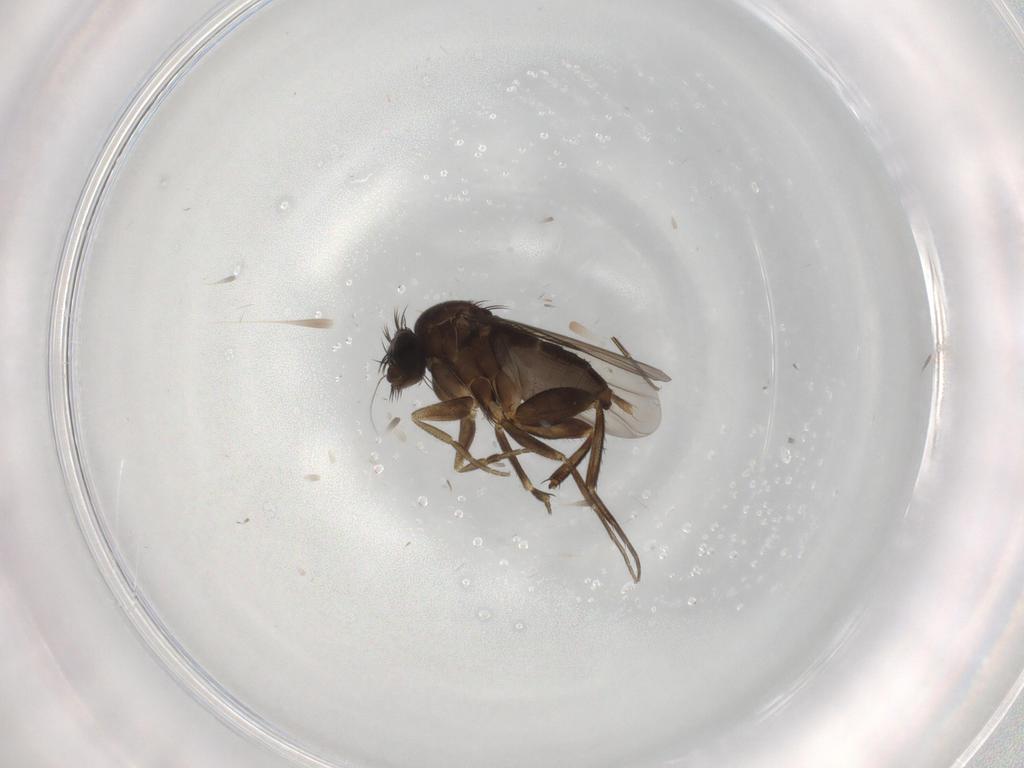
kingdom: Animalia
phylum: Arthropoda
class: Insecta
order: Diptera
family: Phoridae
